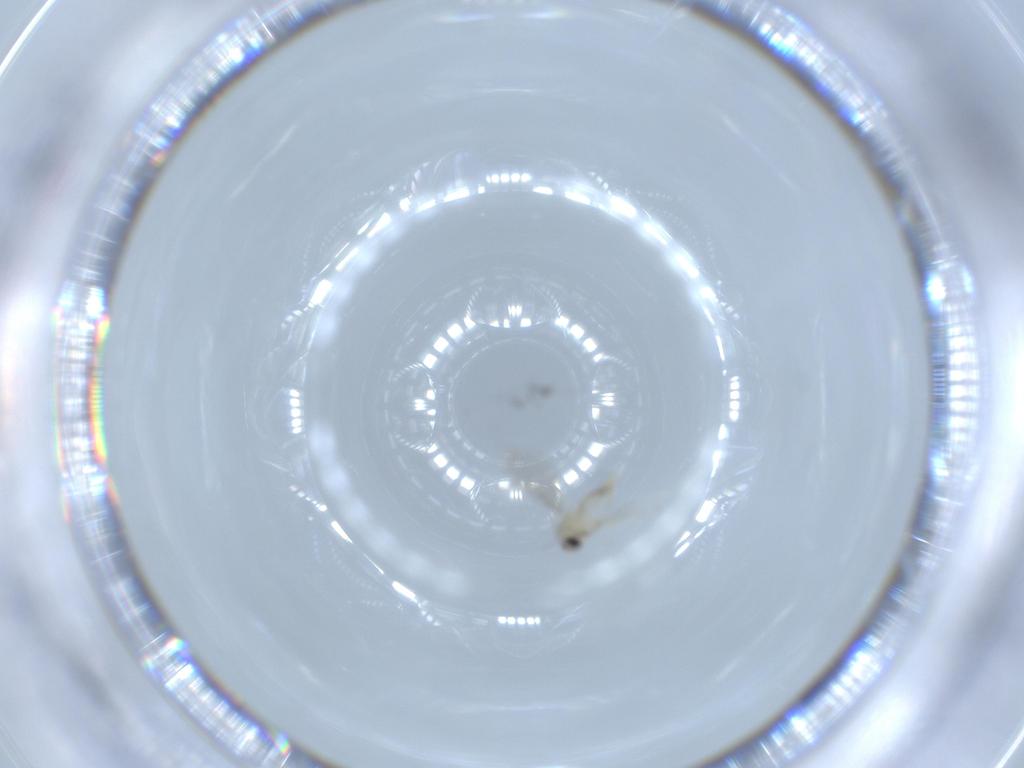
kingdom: Animalia
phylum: Arthropoda
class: Insecta
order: Diptera
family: Cecidomyiidae
